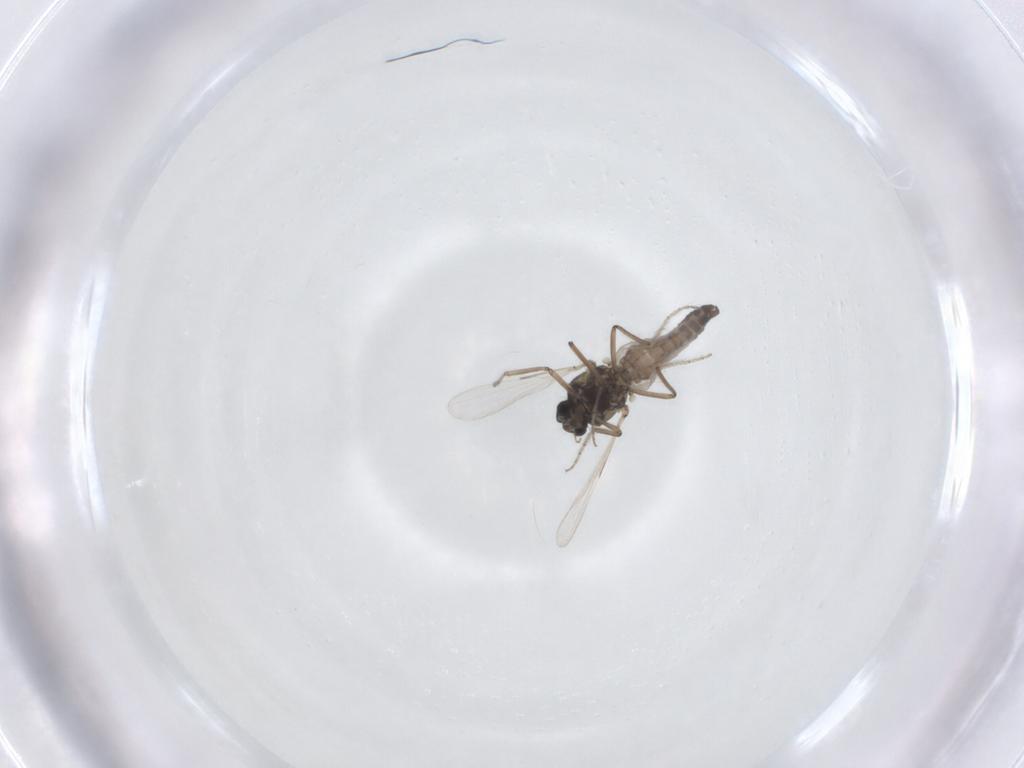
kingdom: Animalia
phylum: Arthropoda
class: Insecta
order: Diptera
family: Ceratopogonidae
